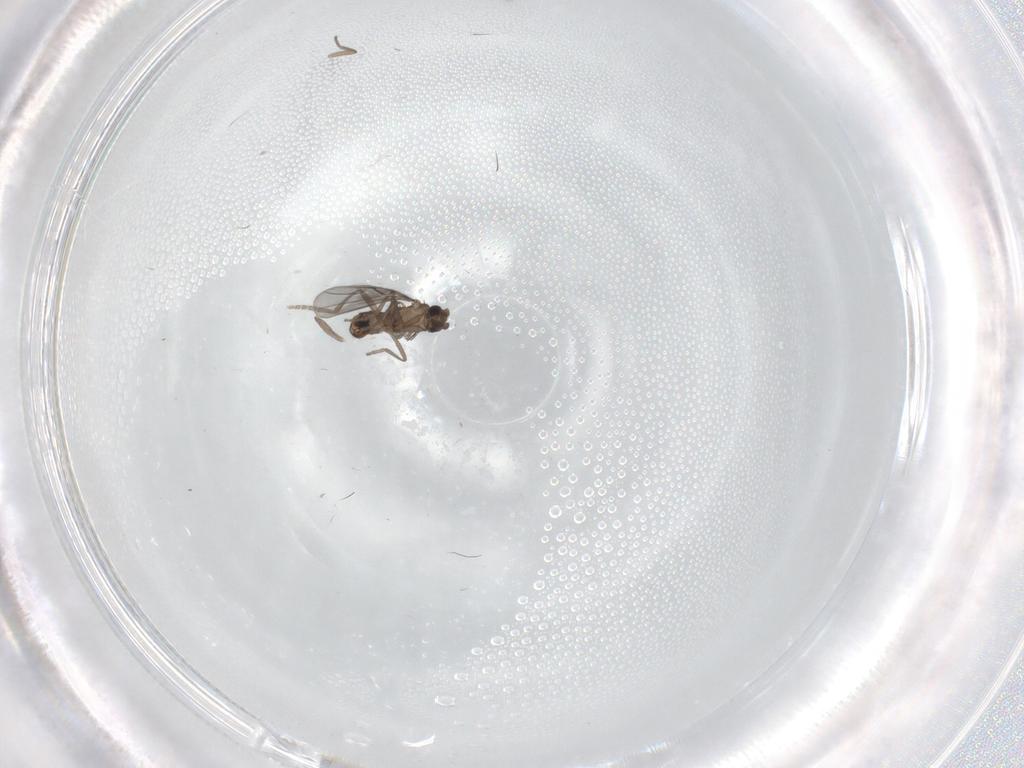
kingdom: Animalia
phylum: Arthropoda
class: Insecta
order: Diptera
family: Phoridae
